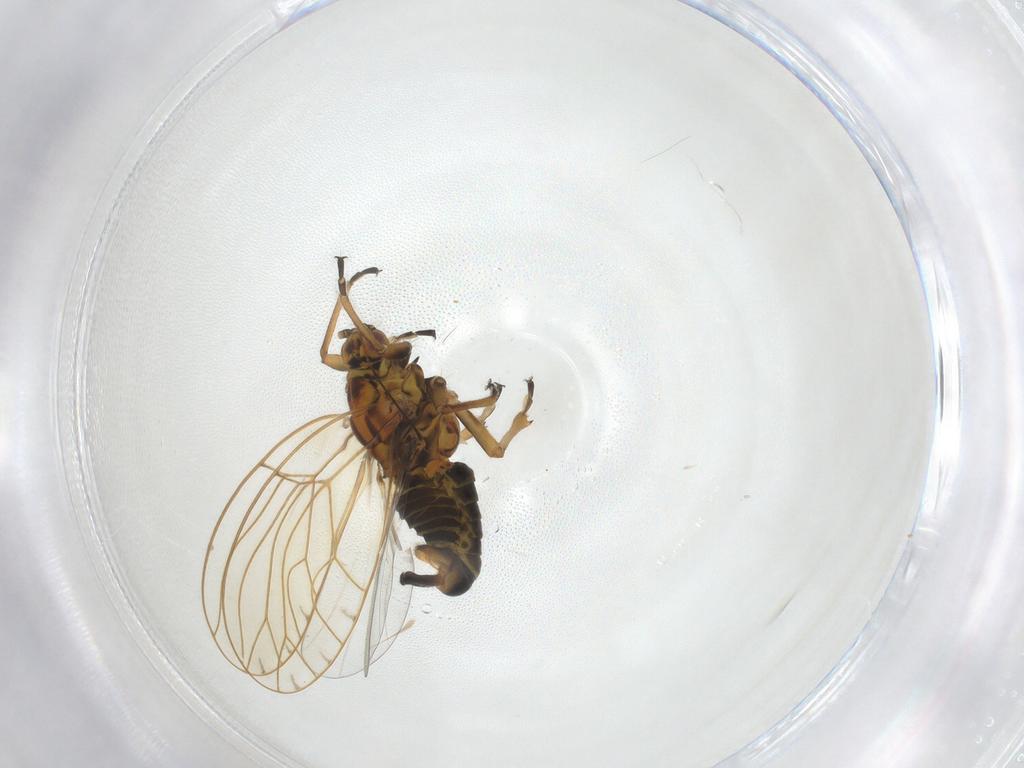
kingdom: Animalia
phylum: Arthropoda
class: Insecta
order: Hemiptera
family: Triozidae
